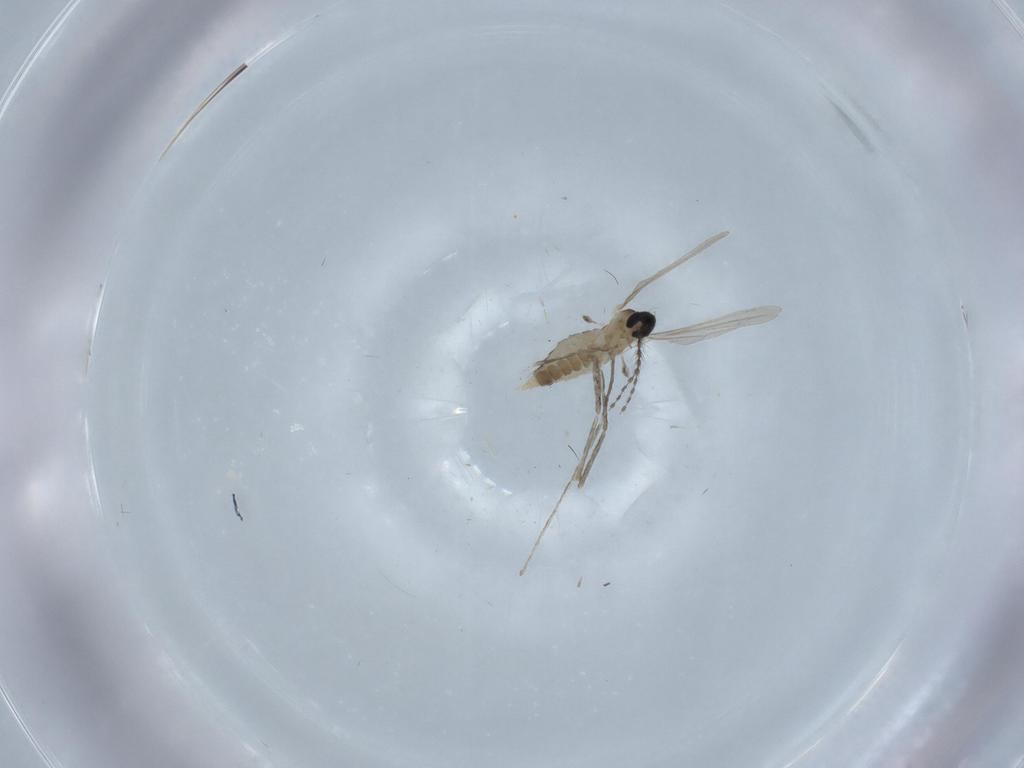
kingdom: Animalia
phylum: Arthropoda
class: Insecta
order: Diptera
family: Cecidomyiidae
